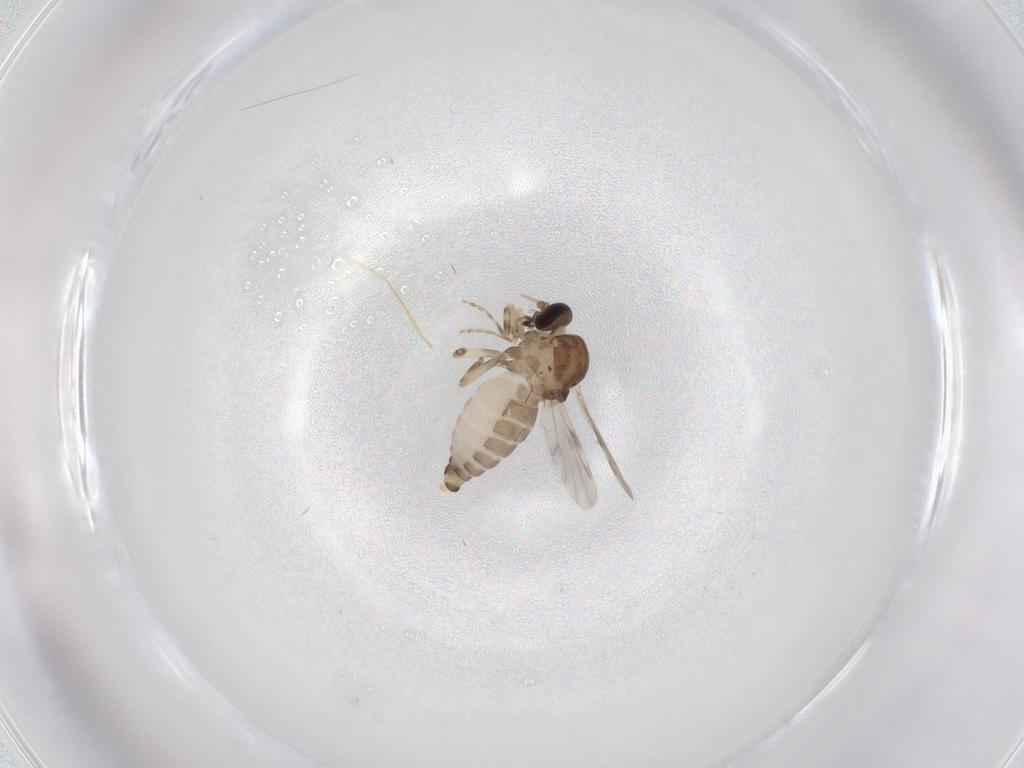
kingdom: Animalia
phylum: Arthropoda
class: Insecta
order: Diptera
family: Ceratopogonidae
